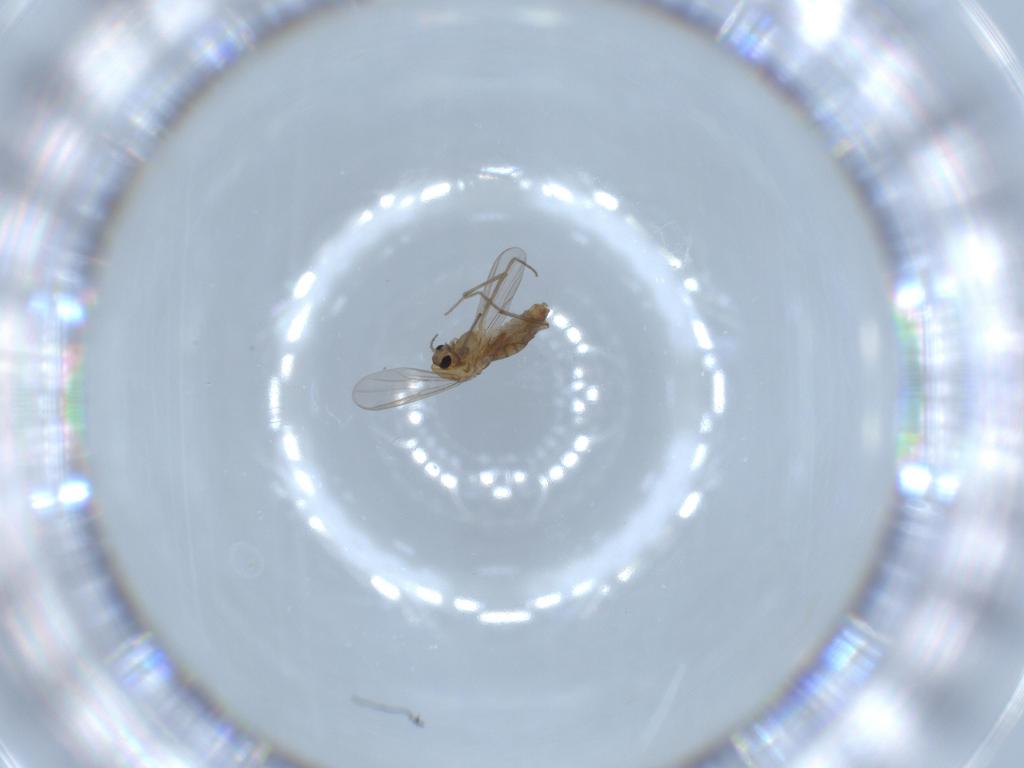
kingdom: Animalia
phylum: Arthropoda
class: Insecta
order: Diptera
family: Chironomidae
